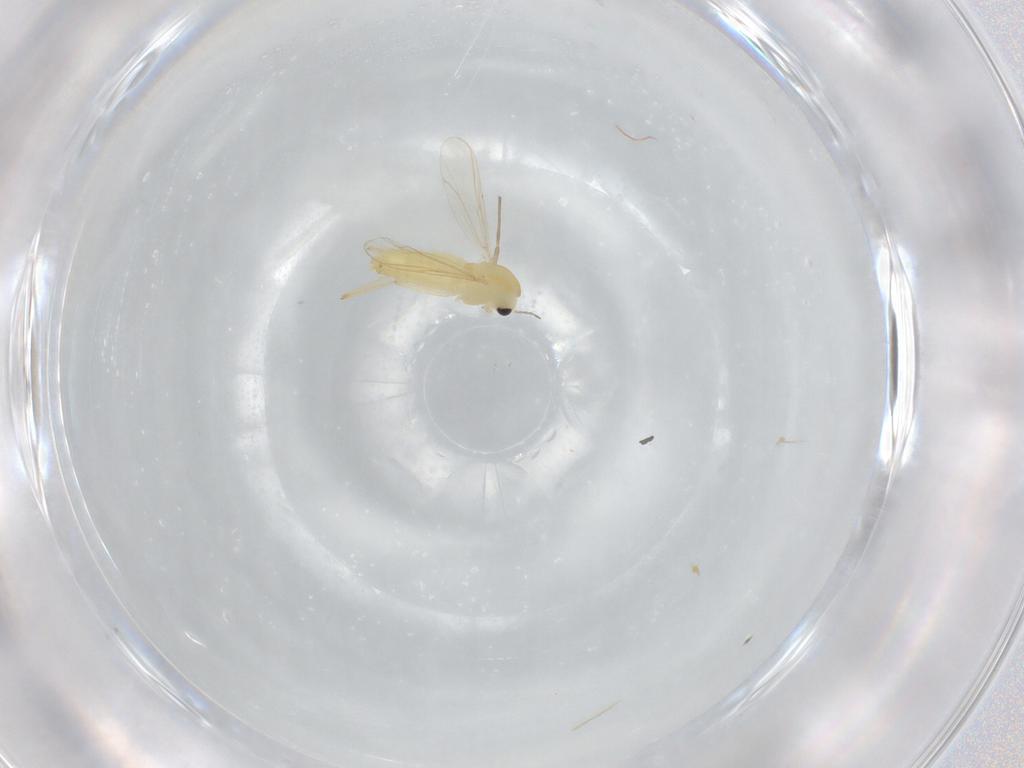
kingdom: Animalia
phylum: Arthropoda
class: Insecta
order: Diptera
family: Chironomidae
